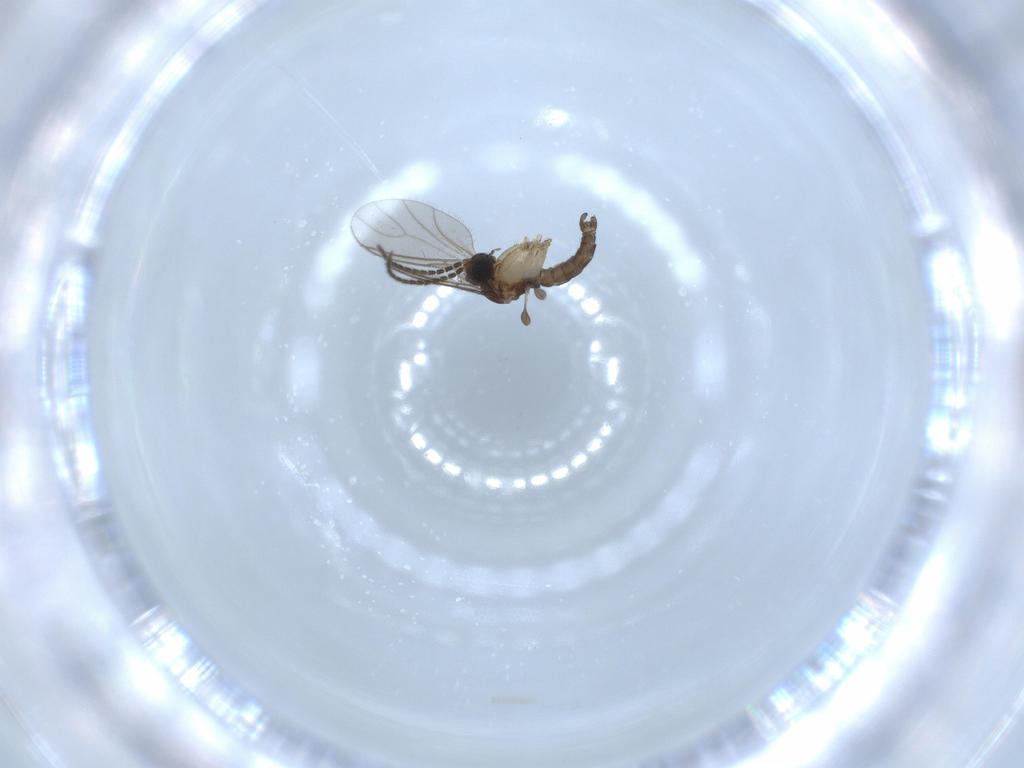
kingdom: Animalia
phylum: Arthropoda
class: Insecta
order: Diptera
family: Sciaridae
